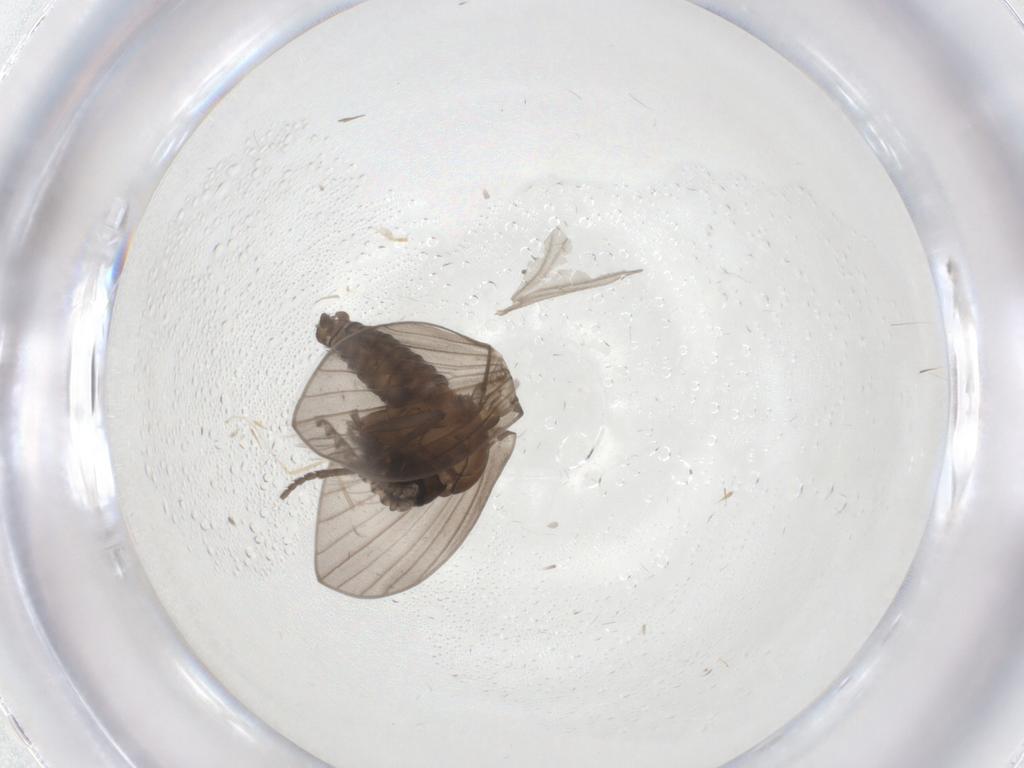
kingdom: Animalia
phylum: Arthropoda
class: Insecta
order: Diptera
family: Psychodidae
